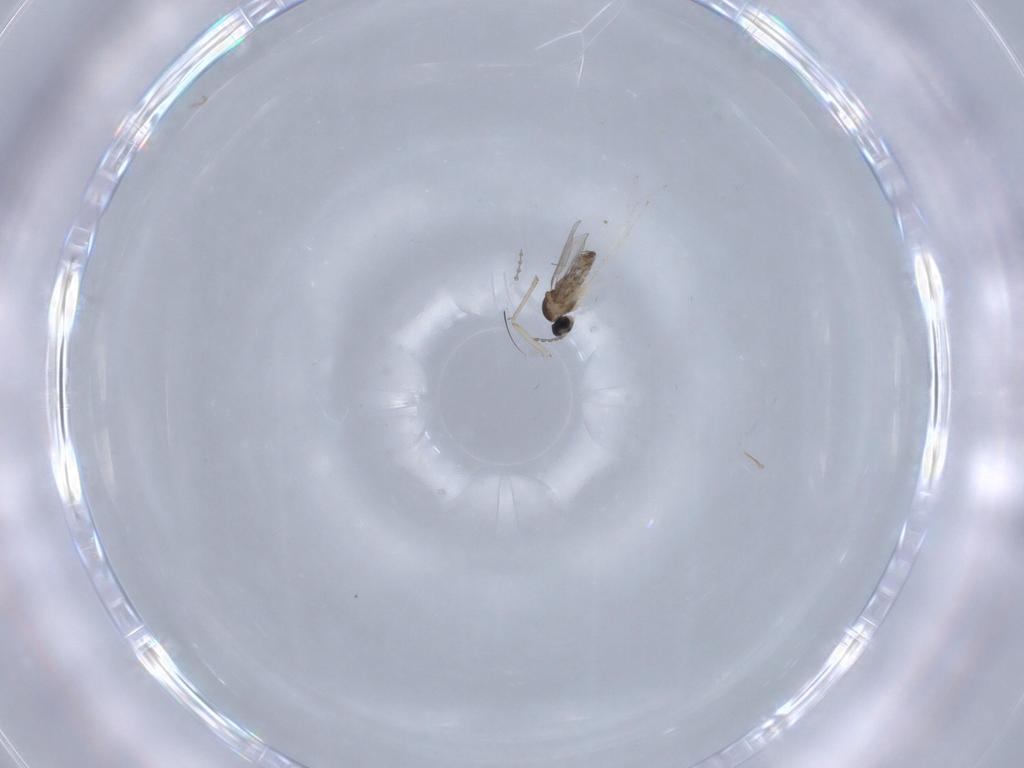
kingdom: Animalia
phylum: Arthropoda
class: Insecta
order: Diptera
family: Cecidomyiidae
